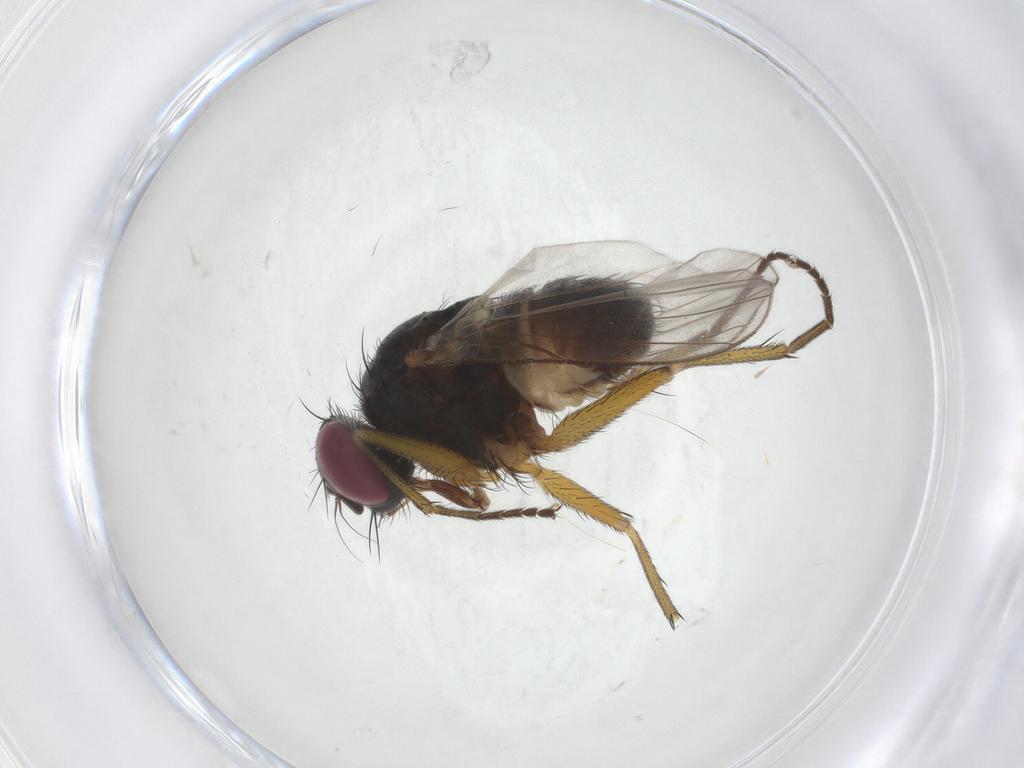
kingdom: Animalia
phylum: Arthropoda
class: Insecta
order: Diptera
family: Muscidae
